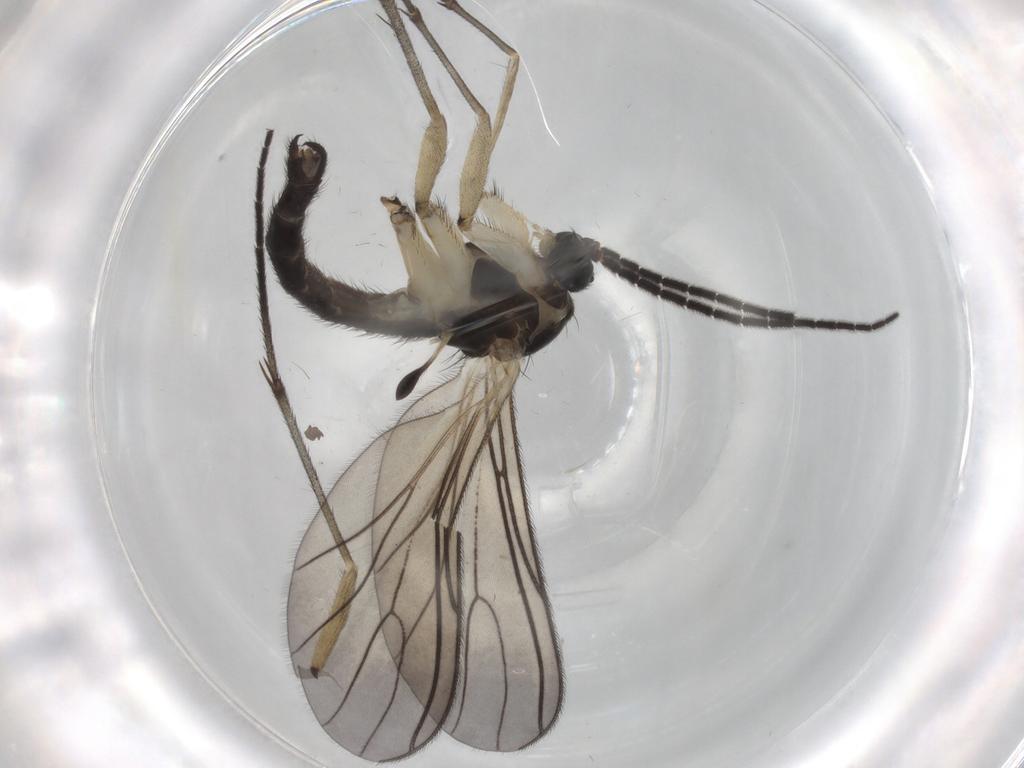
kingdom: Animalia
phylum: Arthropoda
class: Insecta
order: Diptera
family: Sciaridae
